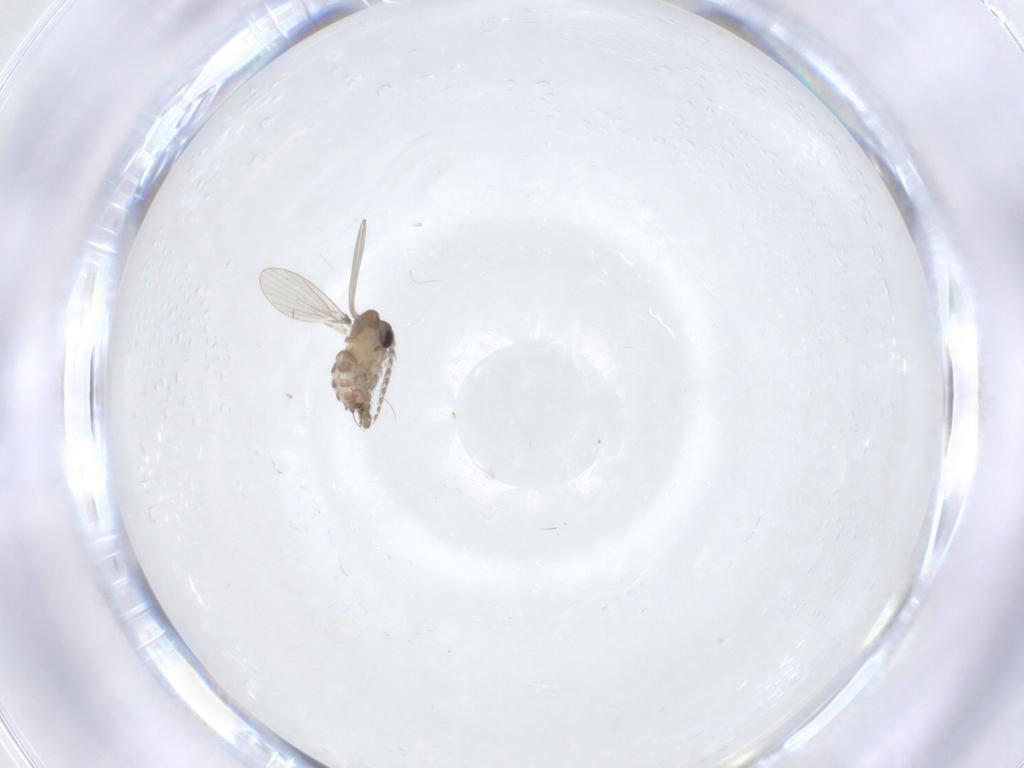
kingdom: Animalia
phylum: Arthropoda
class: Insecta
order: Diptera
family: Psychodidae
